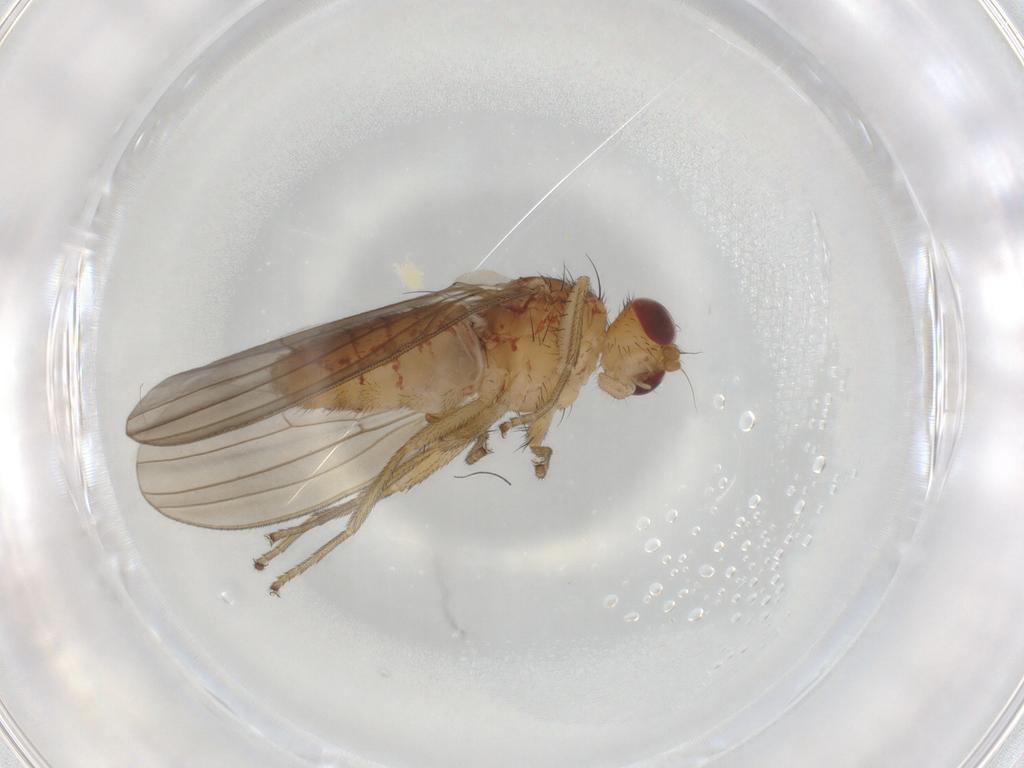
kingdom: Animalia
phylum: Arthropoda
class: Insecta
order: Diptera
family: Natalimyzidae
